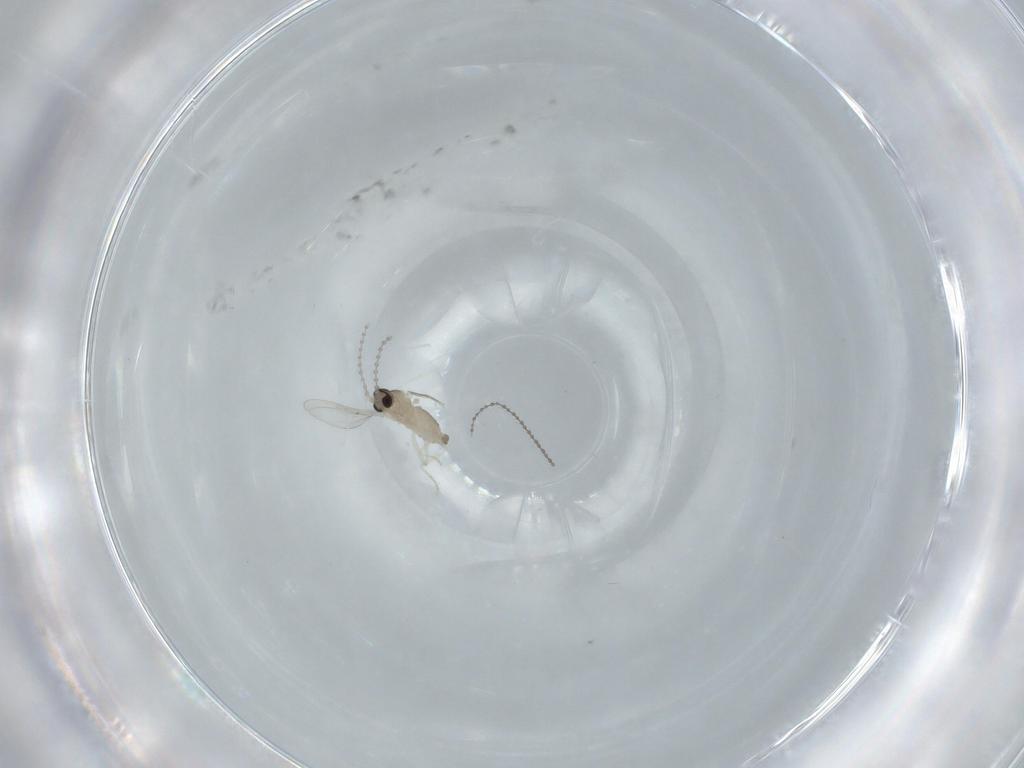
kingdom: Animalia
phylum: Arthropoda
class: Insecta
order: Diptera
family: Cecidomyiidae
